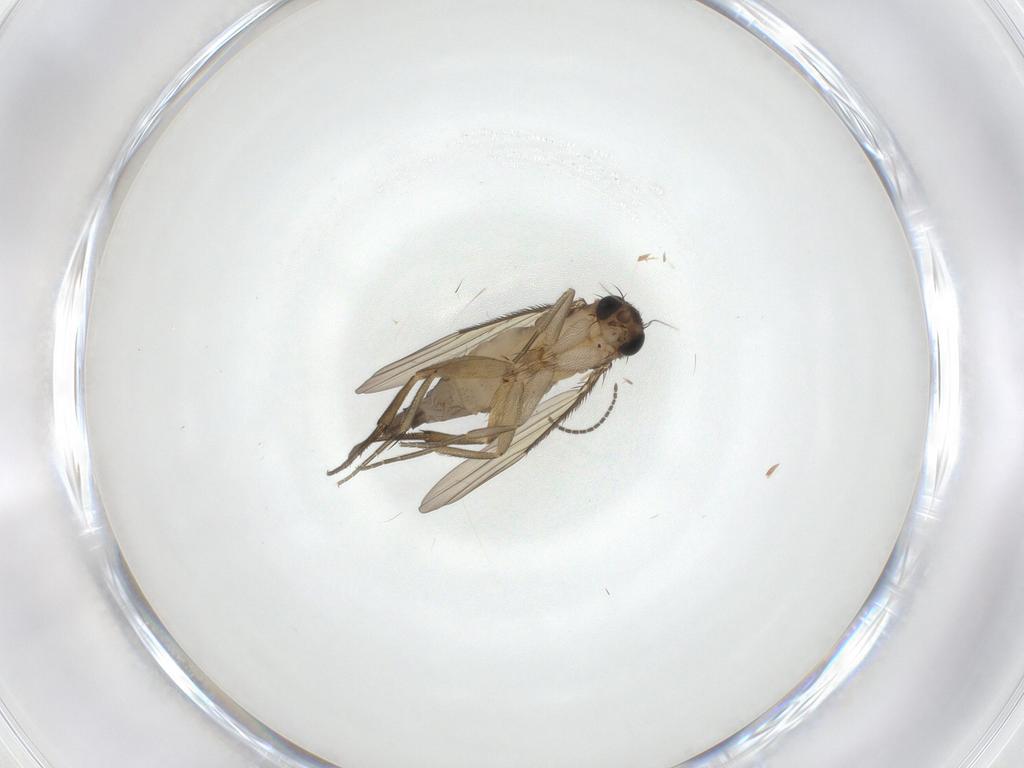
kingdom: Animalia
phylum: Arthropoda
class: Insecta
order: Diptera
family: Phoridae
